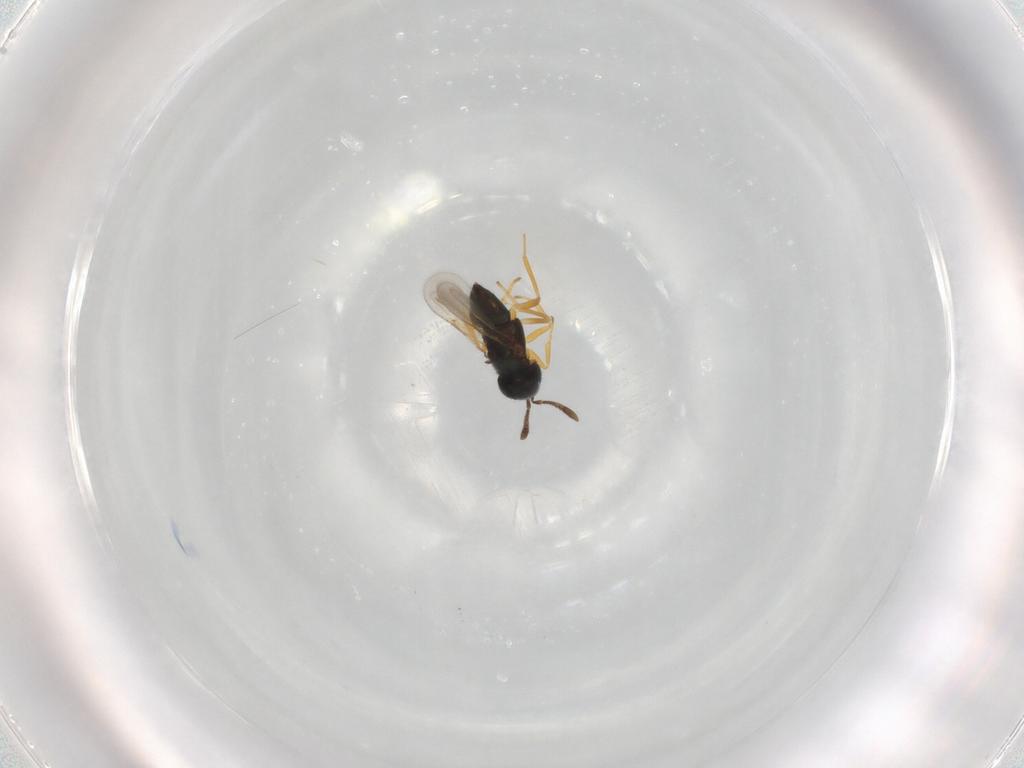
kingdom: Animalia
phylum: Arthropoda
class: Insecta
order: Hymenoptera
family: Encyrtidae
